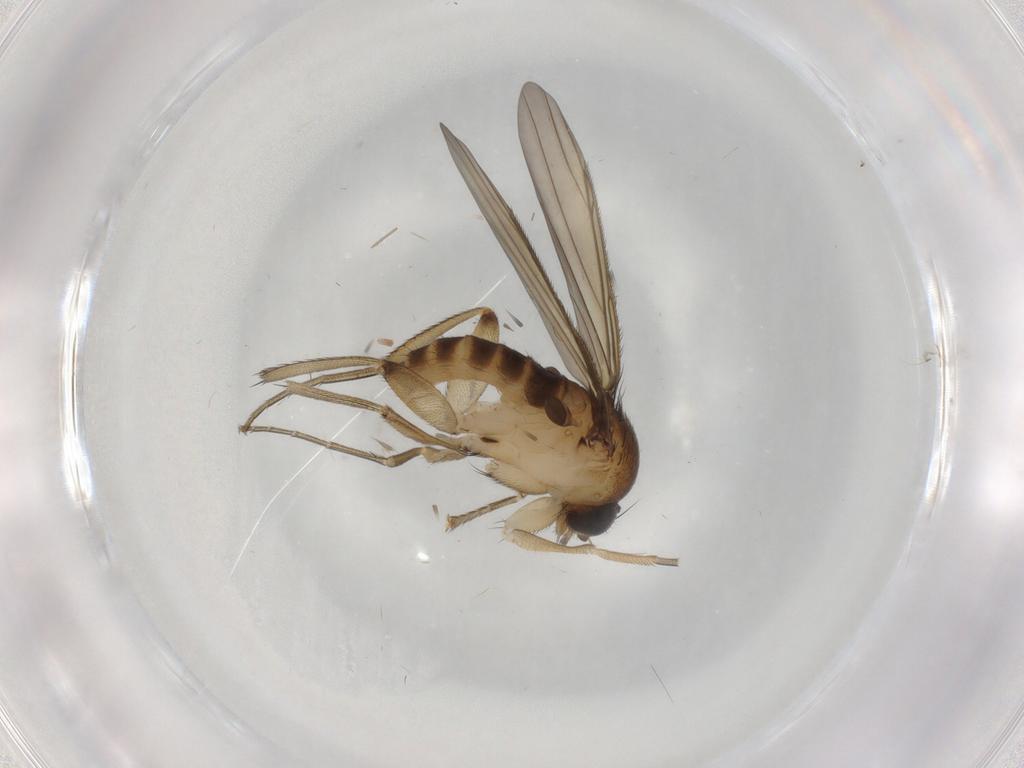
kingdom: Animalia
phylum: Arthropoda
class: Insecta
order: Diptera
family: Phoridae
